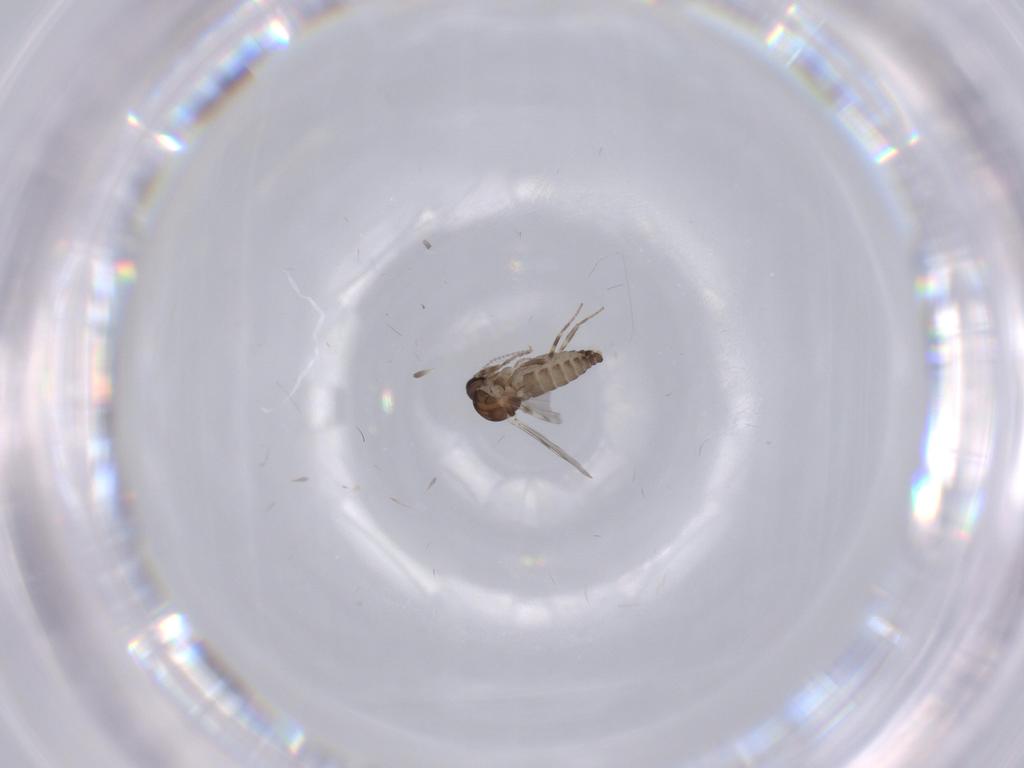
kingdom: Animalia
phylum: Arthropoda
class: Insecta
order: Diptera
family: Ceratopogonidae
